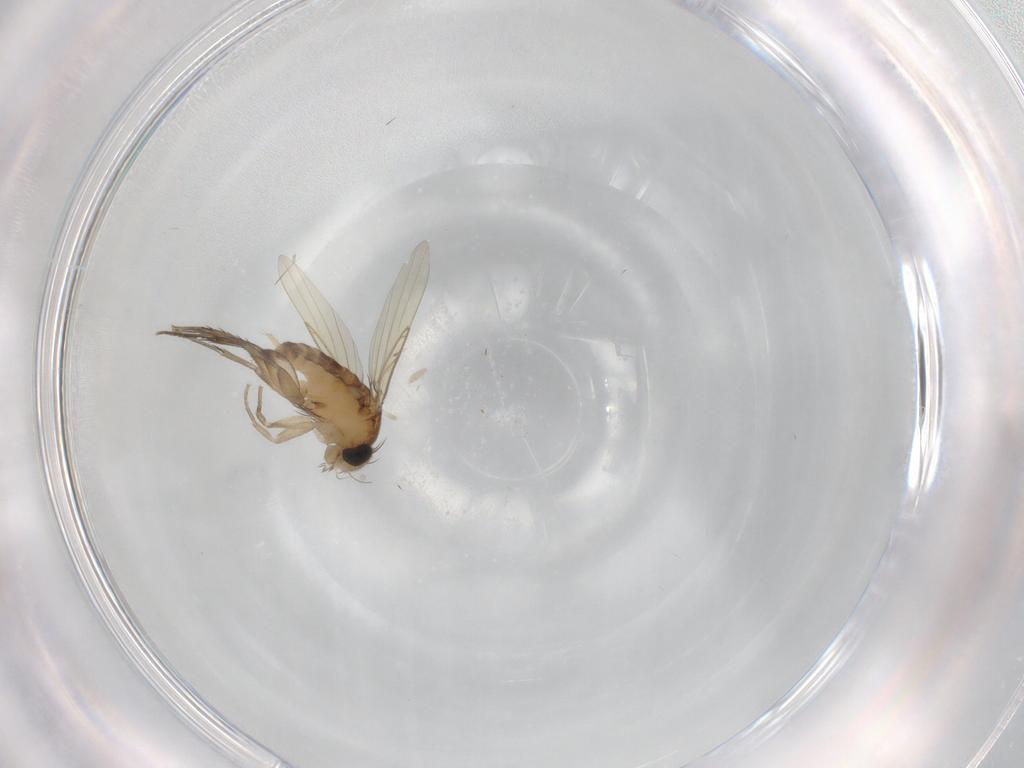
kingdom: Animalia
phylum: Arthropoda
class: Insecta
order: Diptera
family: Phoridae
